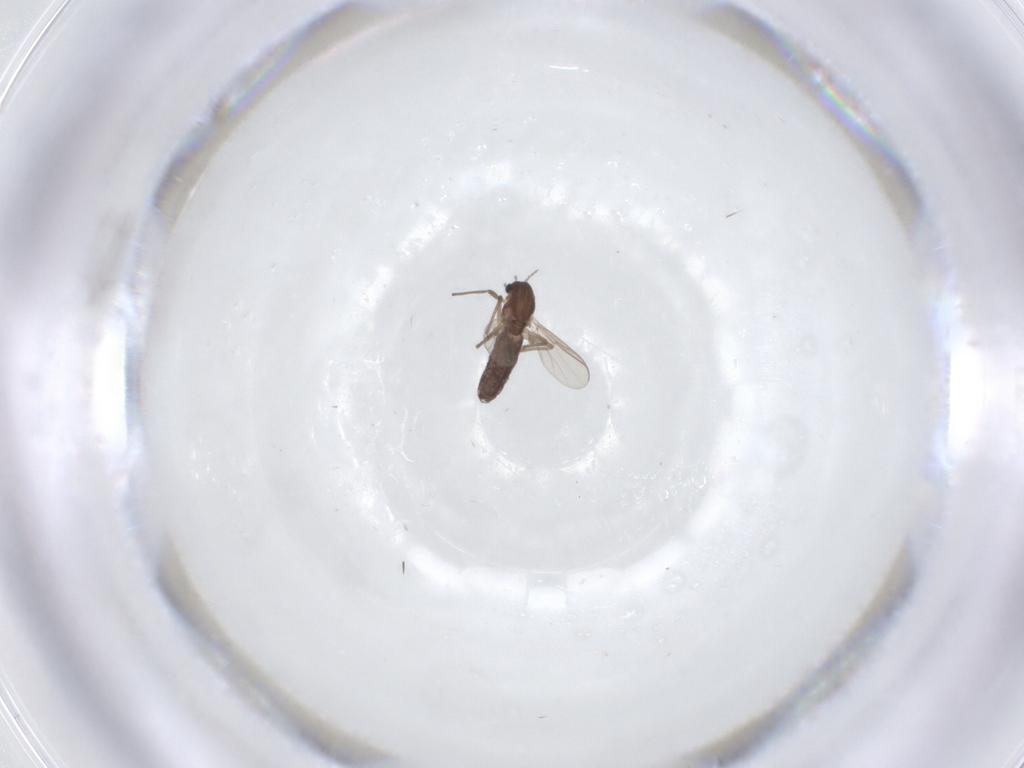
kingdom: Animalia
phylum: Arthropoda
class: Insecta
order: Diptera
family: Chironomidae
